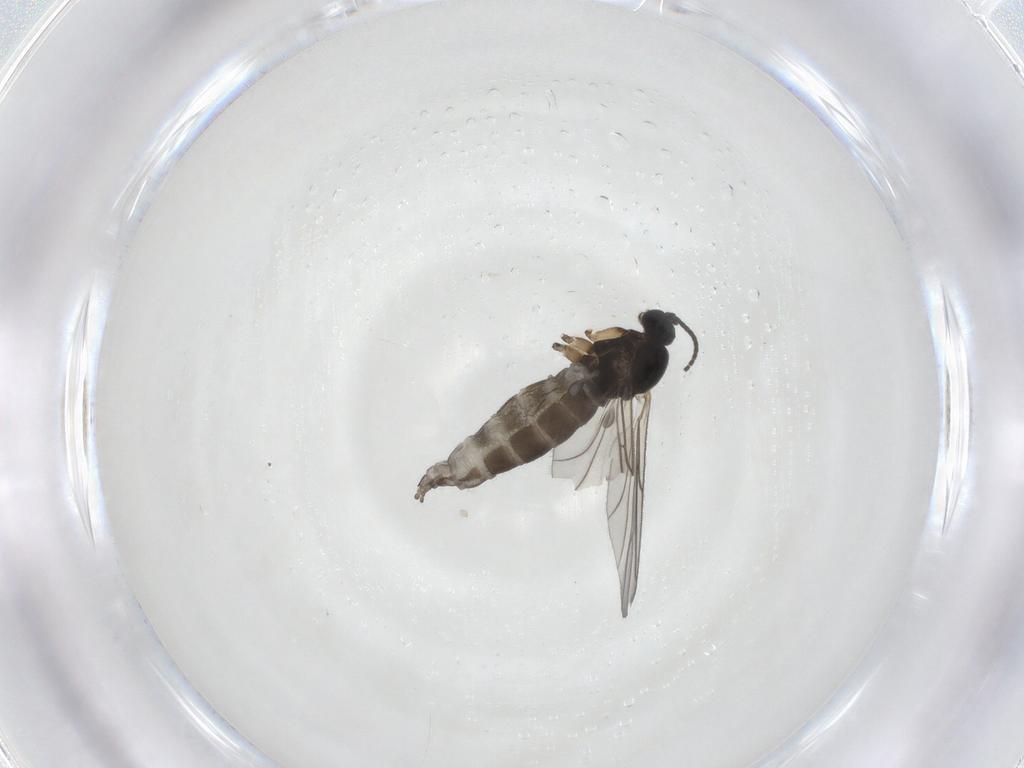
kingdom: Animalia
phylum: Arthropoda
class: Insecta
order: Diptera
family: Sciaridae
